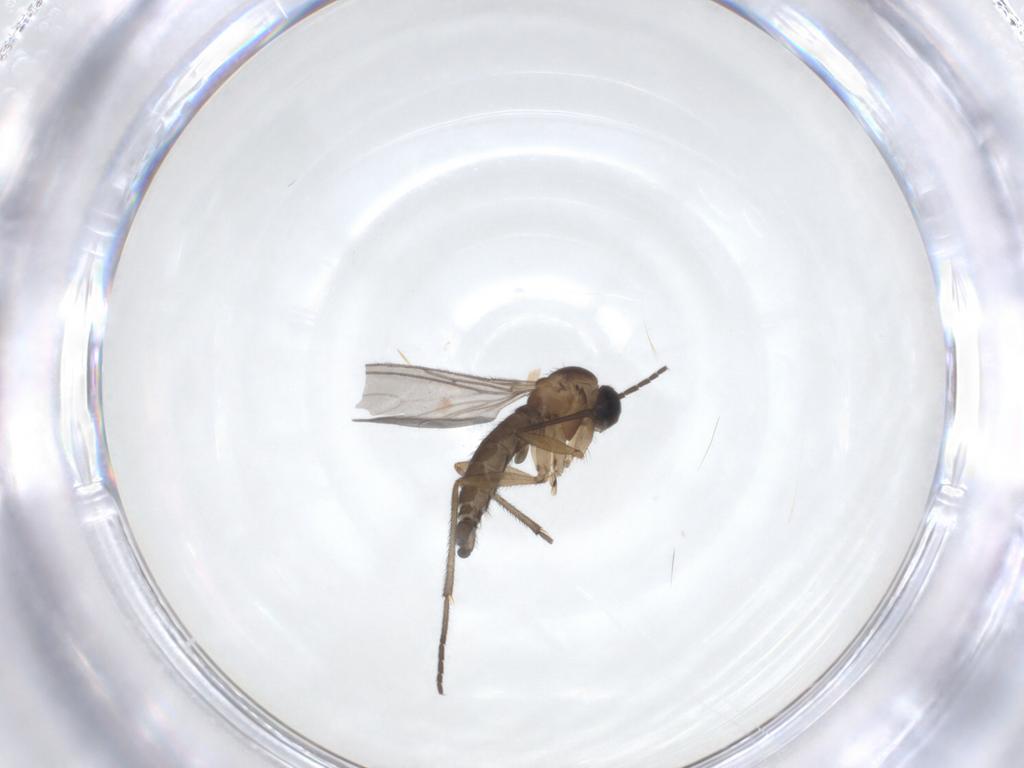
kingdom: Animalia
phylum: Arthropoda
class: Insecta
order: Diptera
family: Sciaridae
